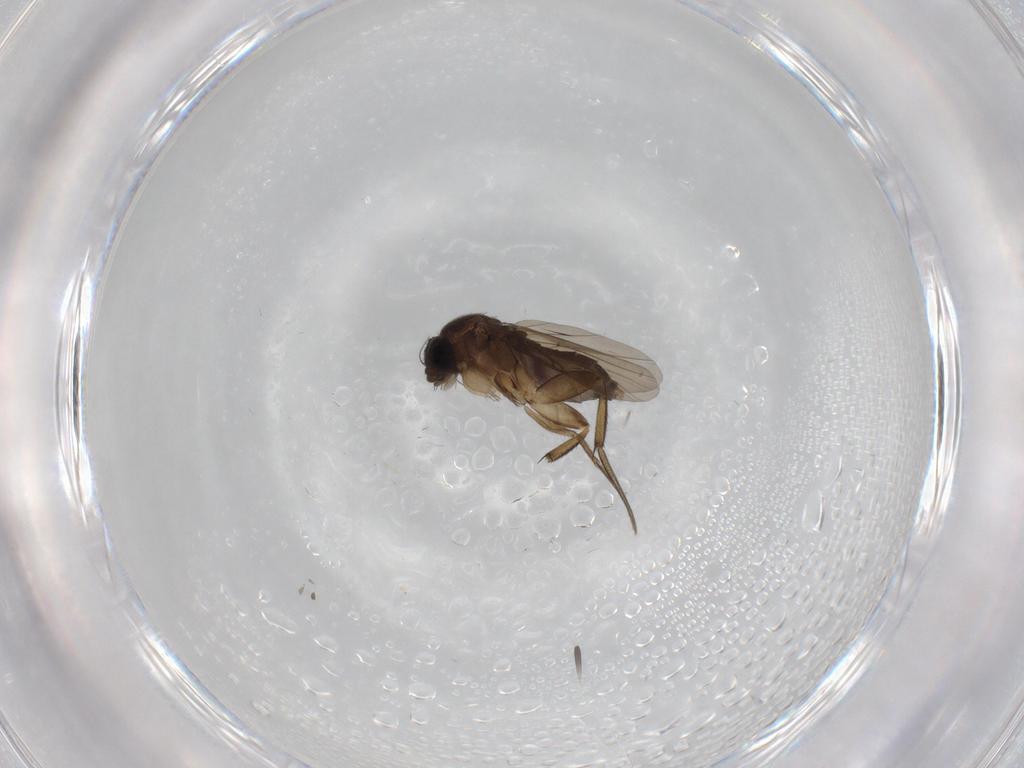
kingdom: Animalia
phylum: Arthropoda
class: Insecta
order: Diptera
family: Phoridae
